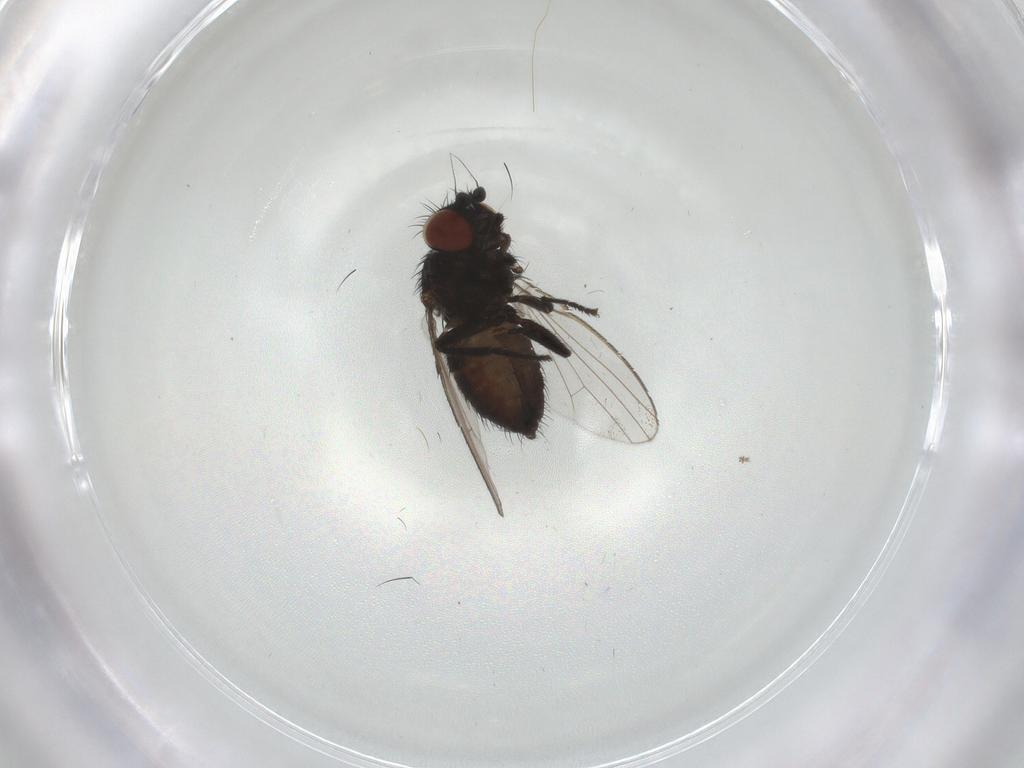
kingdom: Animalia
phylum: Arthropoda
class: Insecta
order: Diptera
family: Milichiidae
